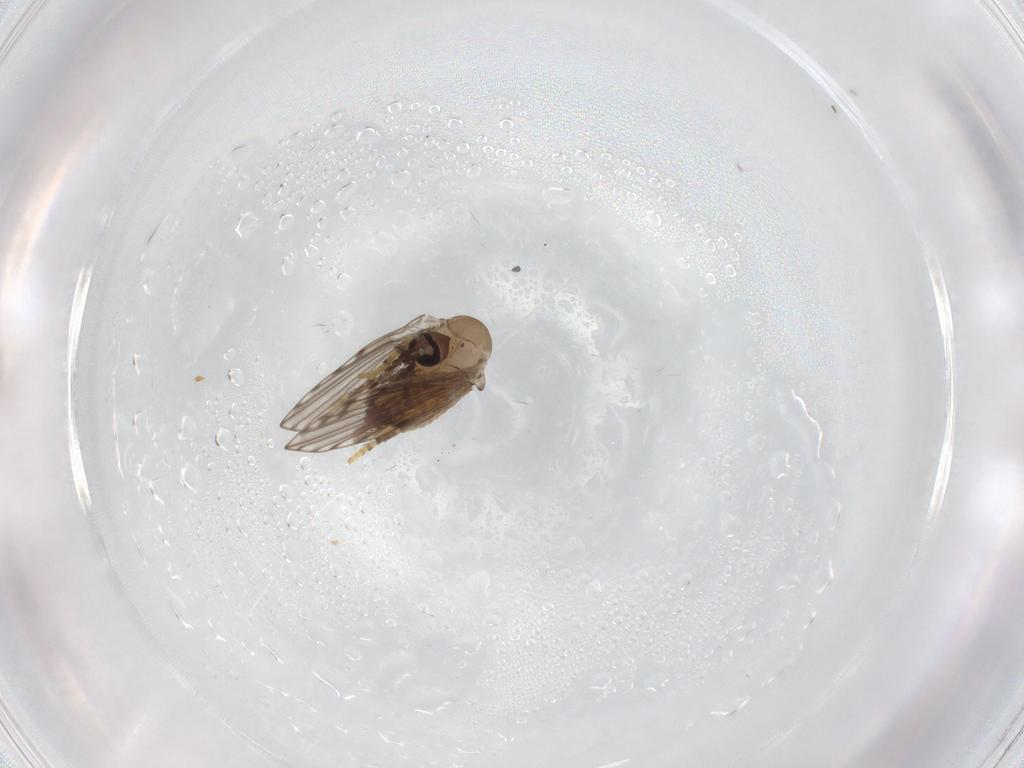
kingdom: Animalia
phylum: Arthropoda
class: Insecta
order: Diptera
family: Psychodidae
